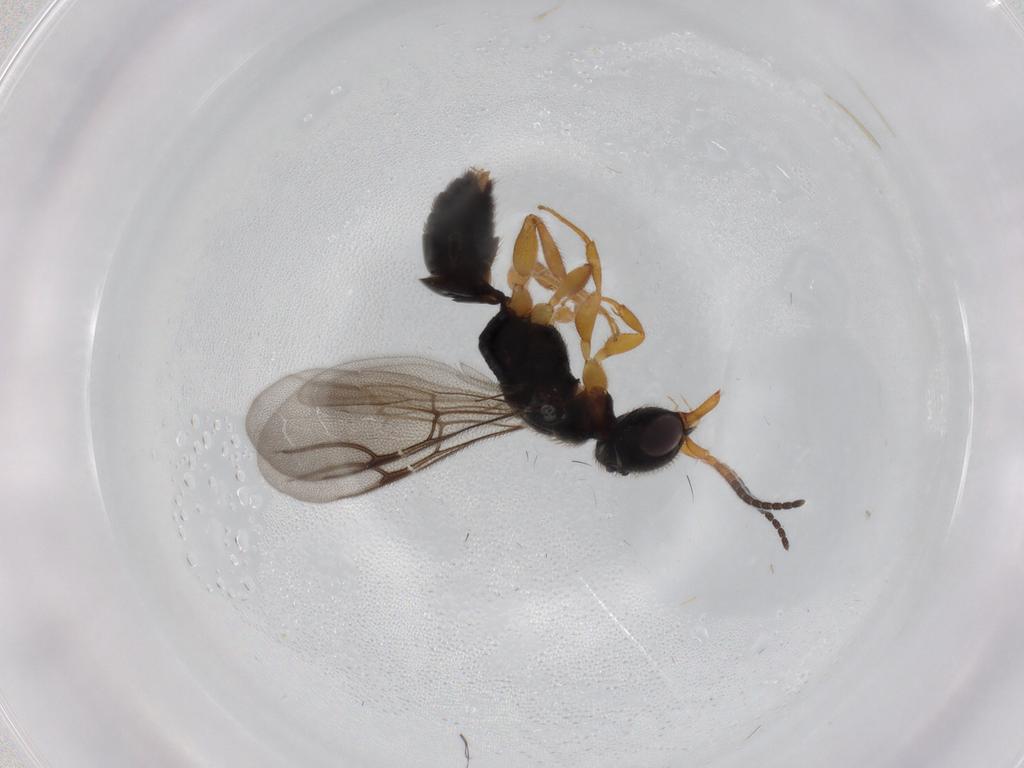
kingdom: Animalia
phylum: Arthropoda
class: Insecta
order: Hymenoptera
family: Bethylidae
